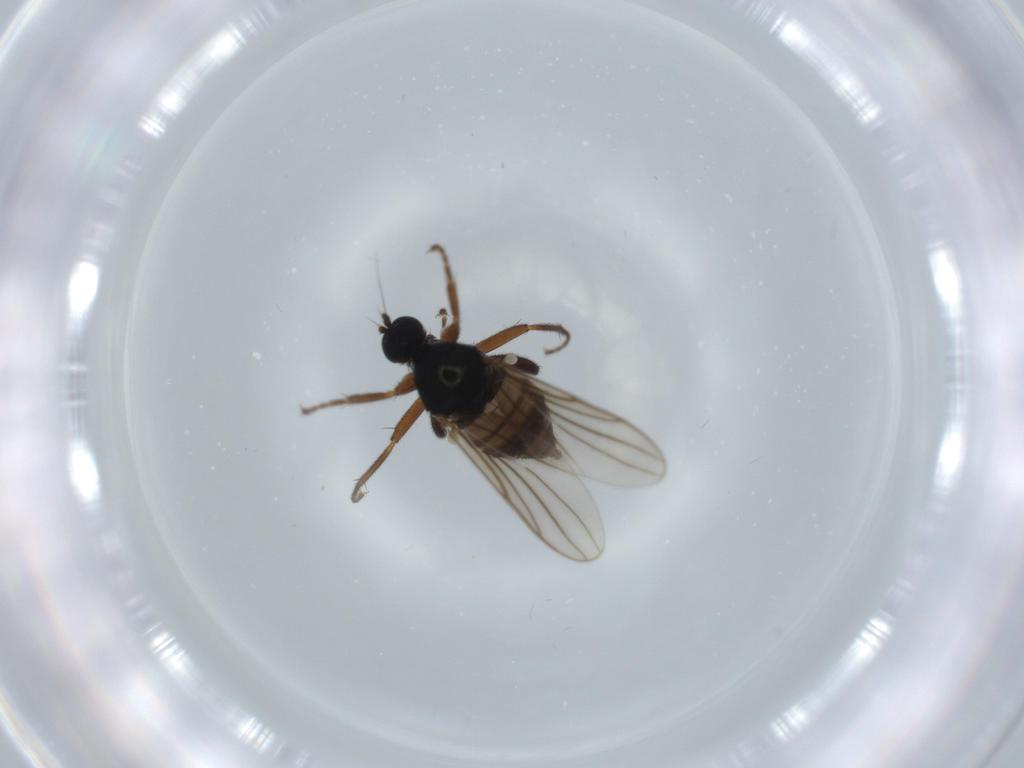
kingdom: Animalia
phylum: Arthropoda
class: Insecta
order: Diptera
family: Hybotidae
